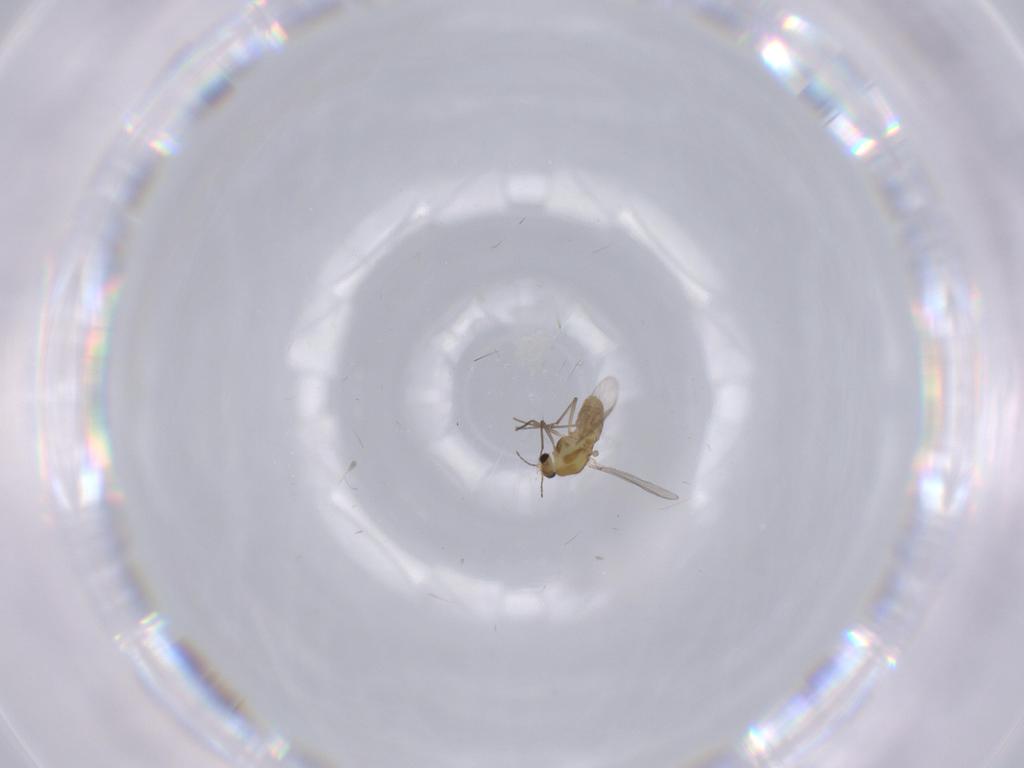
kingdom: Animalia
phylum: Arthropoda
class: Insecta
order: Diptera
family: Chironomidae
